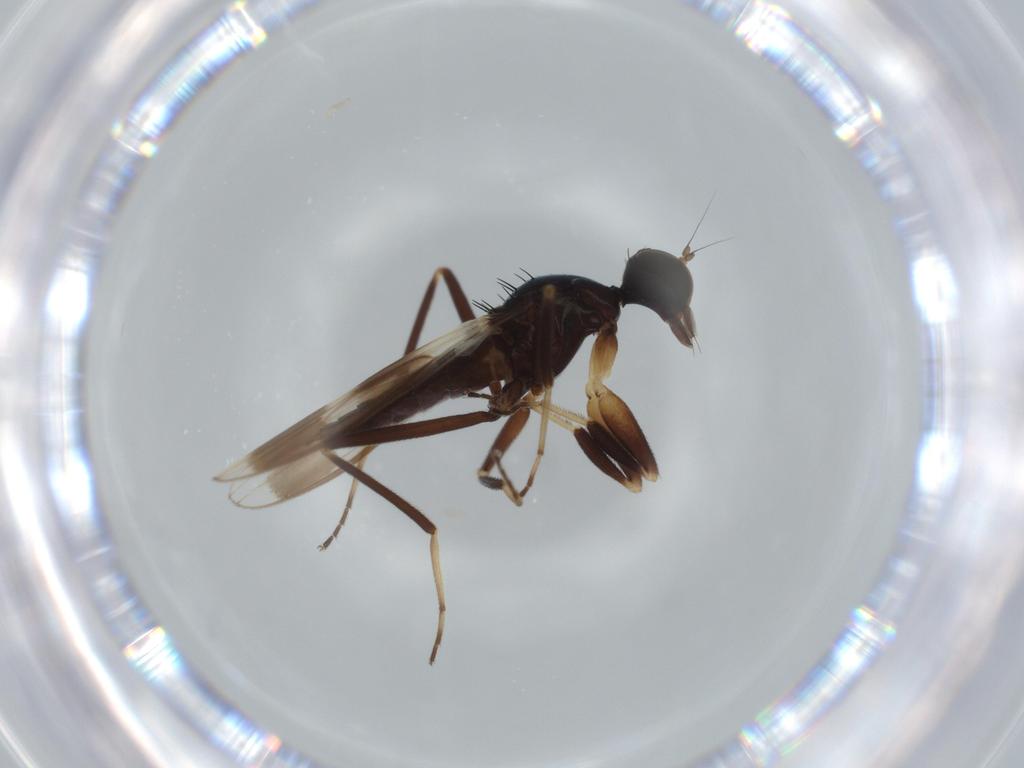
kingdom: Animalia
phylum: Arthropoda
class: Insecta
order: Diptera
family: Hybotidae
